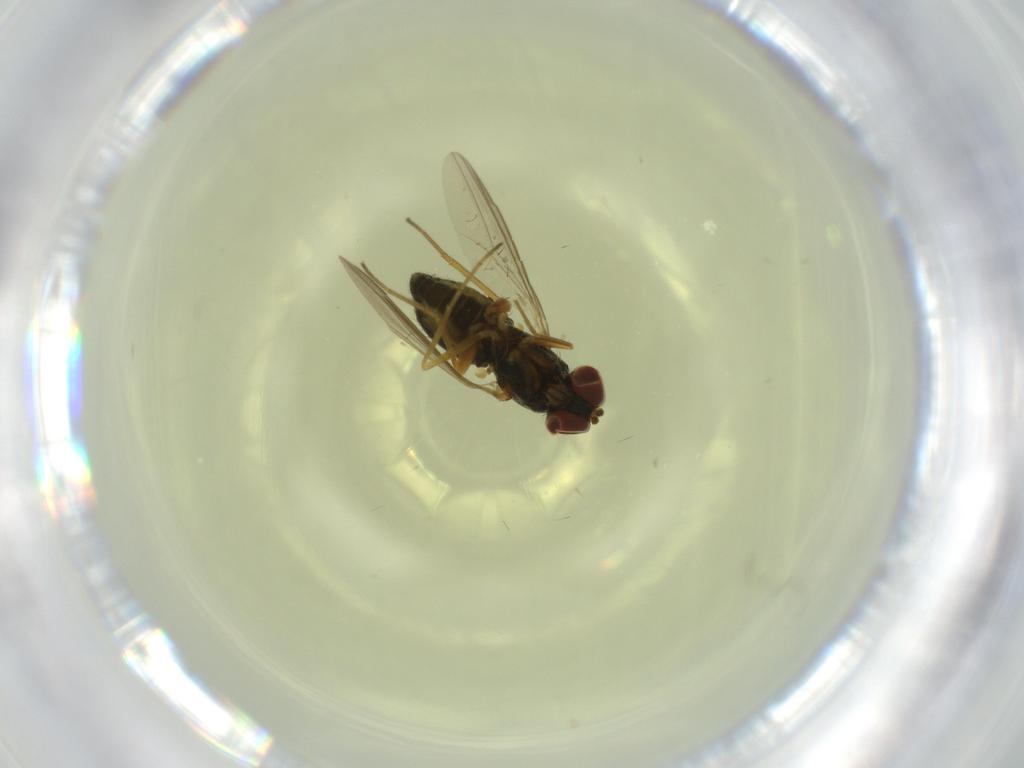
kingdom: Animalia
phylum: Arthropoda
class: Insecta
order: Diptera
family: Dolichopodidae
